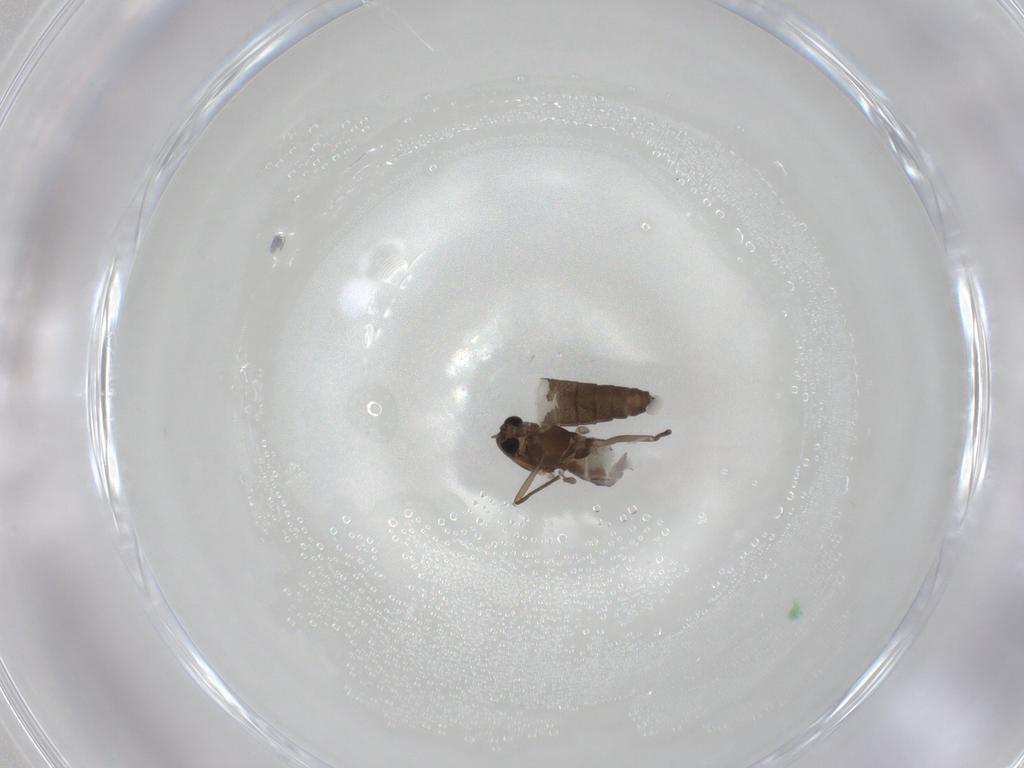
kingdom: Animalia
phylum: Arthropoda
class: Insecta
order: Diptera
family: Chironomidae
